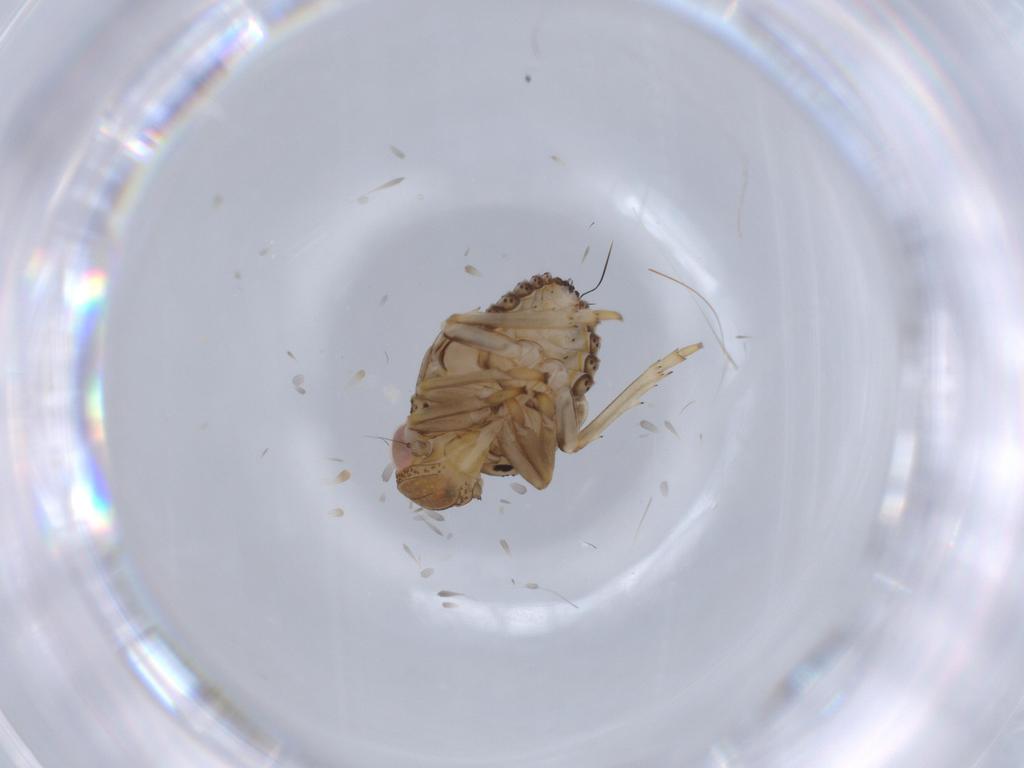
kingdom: Animalia
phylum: Arthropoda
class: Insecta
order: Hemiptera
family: Issidae
